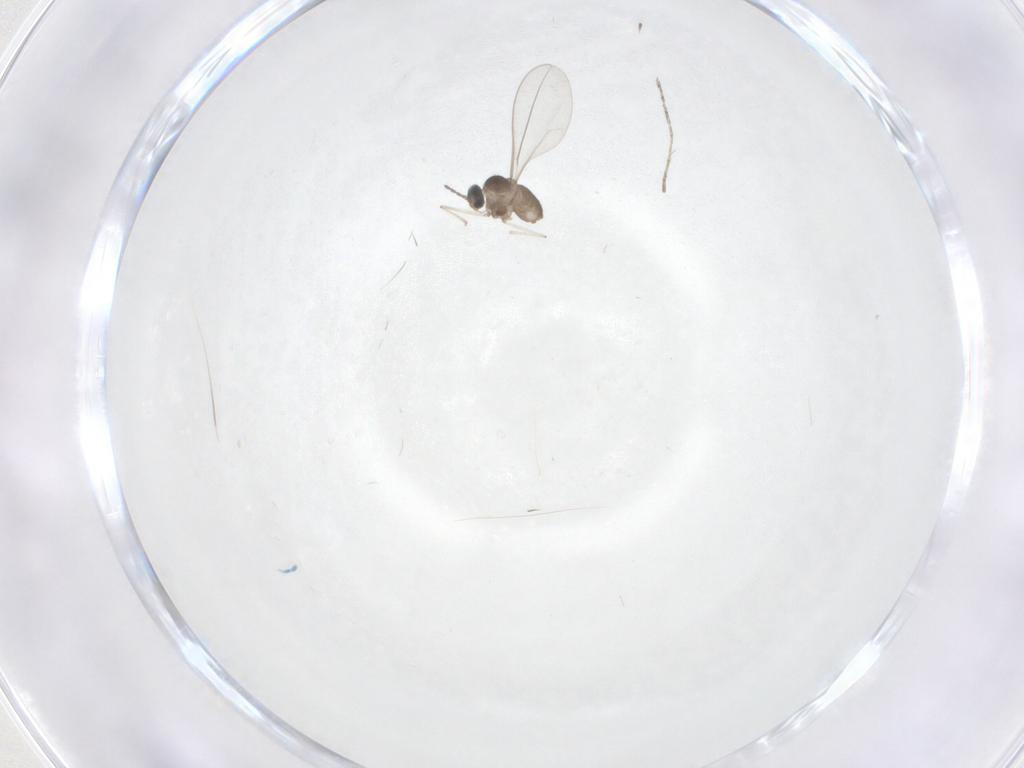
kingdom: Animalia
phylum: Arthropoda
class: Insecta
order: Diptera
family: Cecidomyiidae
